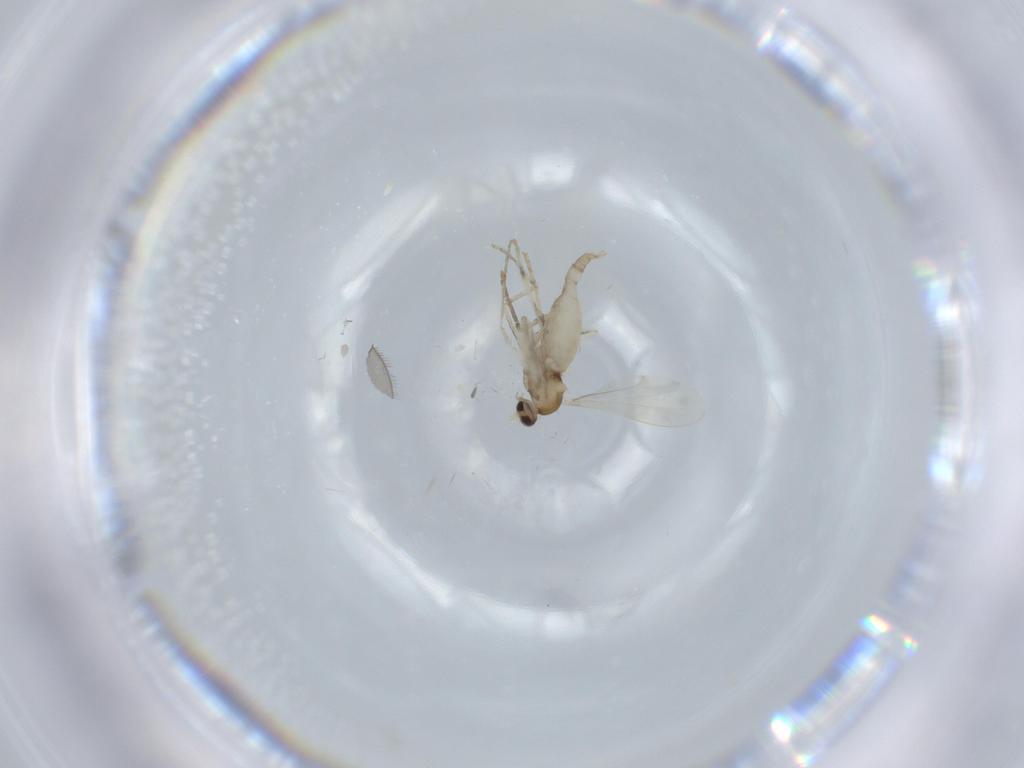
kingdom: Animalia
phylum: Arthropoda
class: Insecta
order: Diptera
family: Cecidomyiidae
